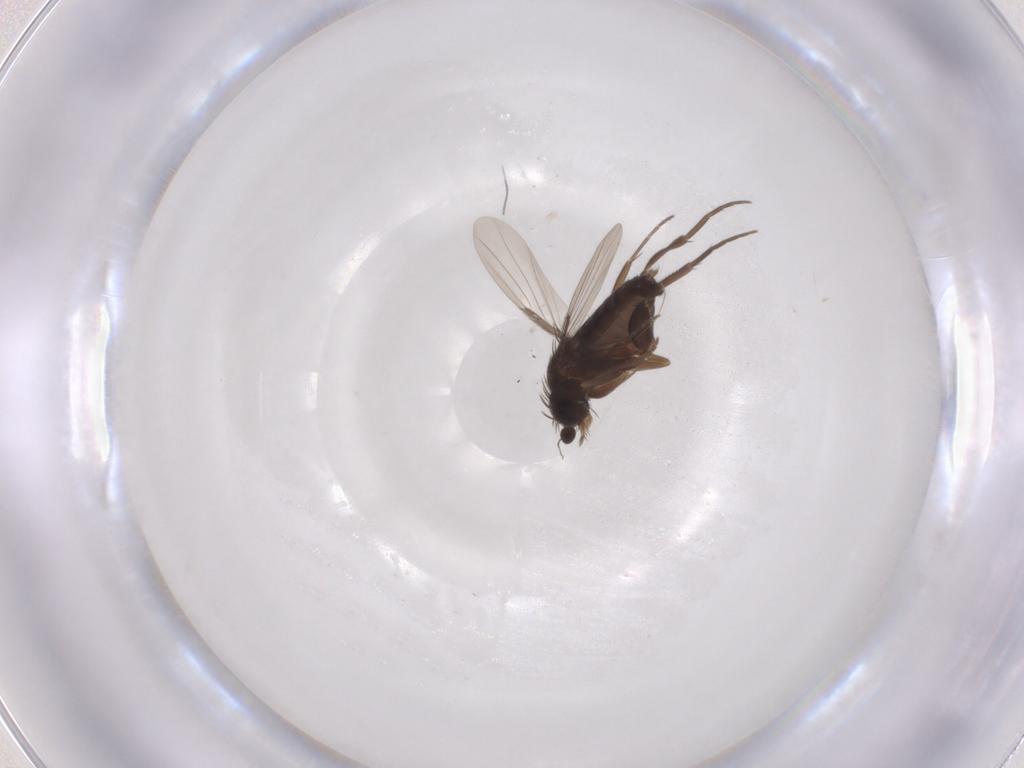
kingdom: Animalia
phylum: Arthropoda
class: Insecta
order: Diptera
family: Phoridae
